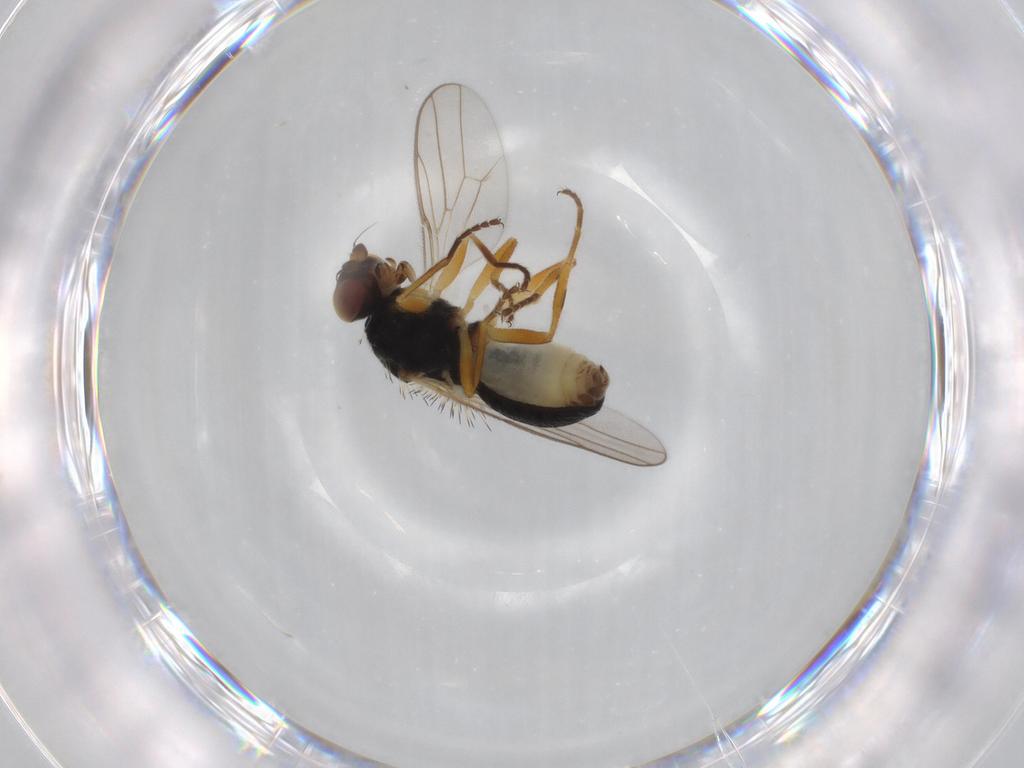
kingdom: Animalia
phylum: Arthropoda
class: Insecta
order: Diptera
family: Chloropidae
